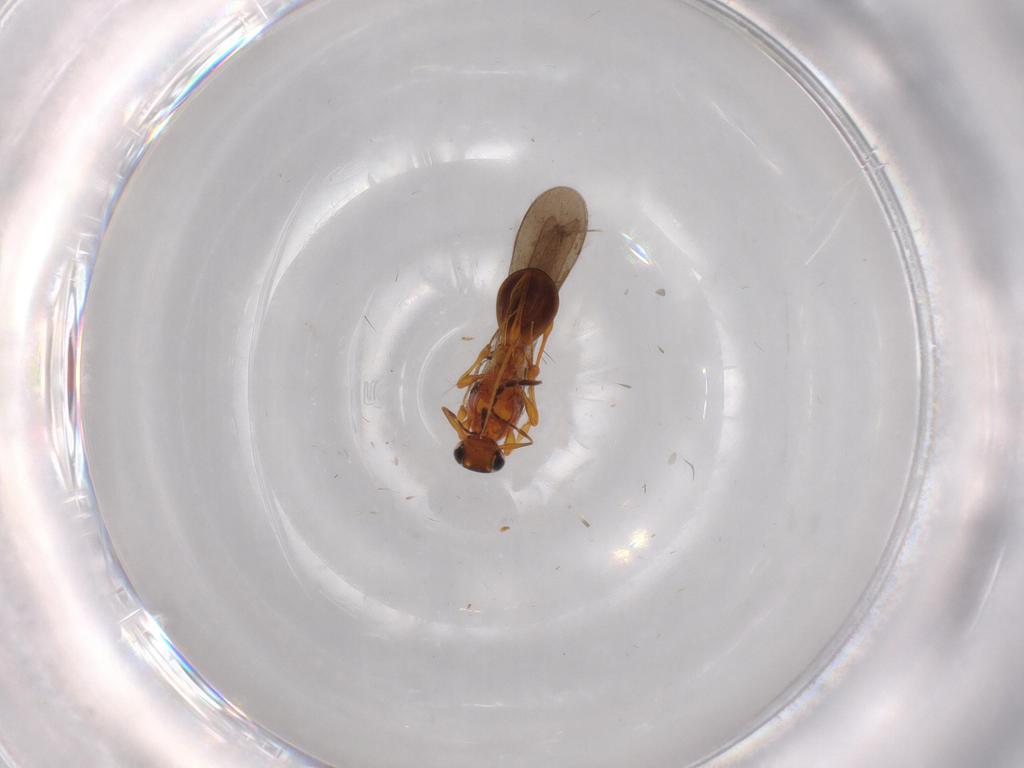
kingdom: Animalia
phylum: Arthropoda
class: Insecta
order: Hymenoptera
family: Platygastridae
